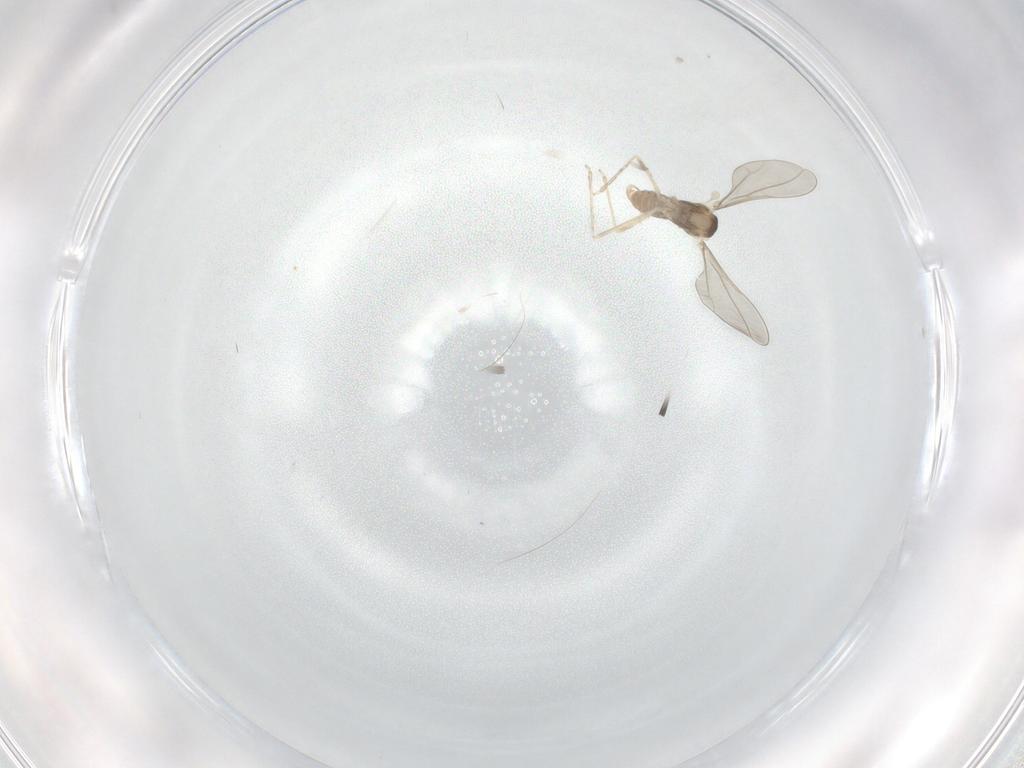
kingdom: Animalia
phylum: Arthropoda
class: Insecta
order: Diptera
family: Cecidomyiidae
